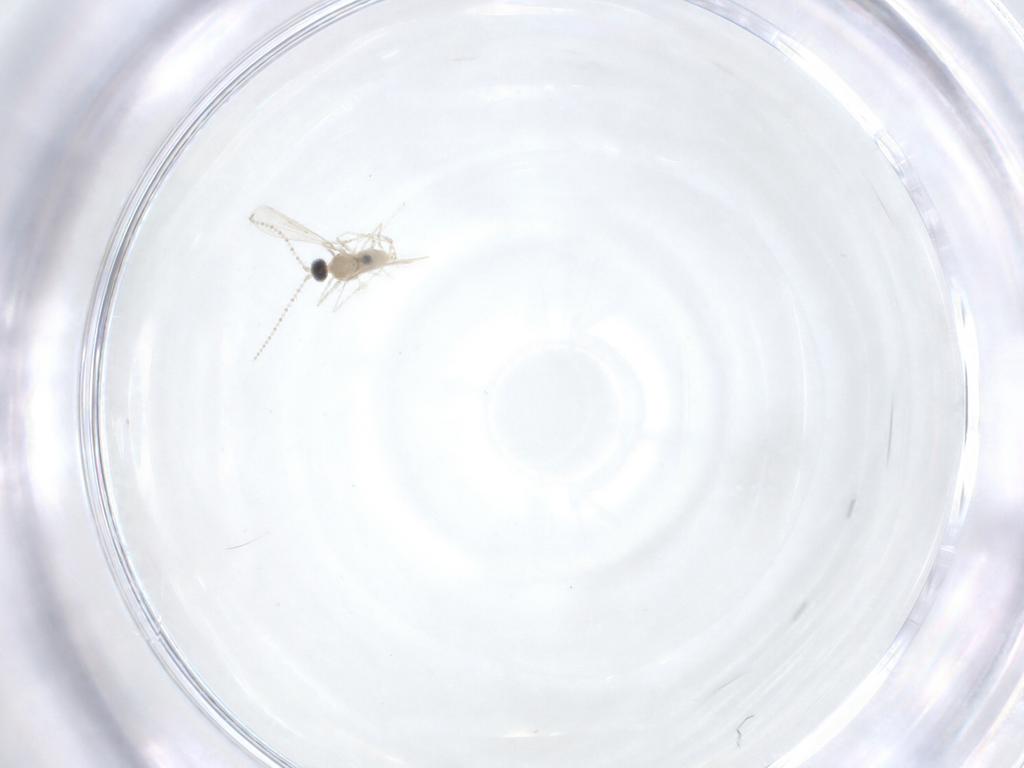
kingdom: Animalia
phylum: Arthropoda
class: Insecta
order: Diptera
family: Cecidomyiidae
